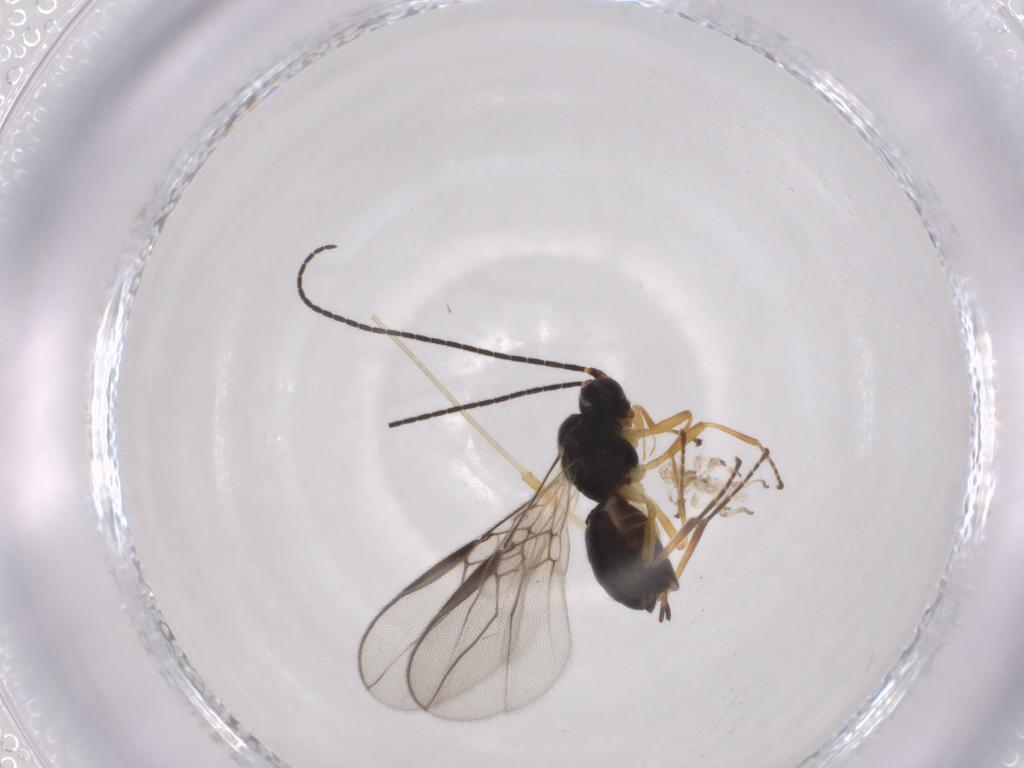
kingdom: Animalia
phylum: Arthropoda
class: Insecta
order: Hymenoptera
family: Braconidae
